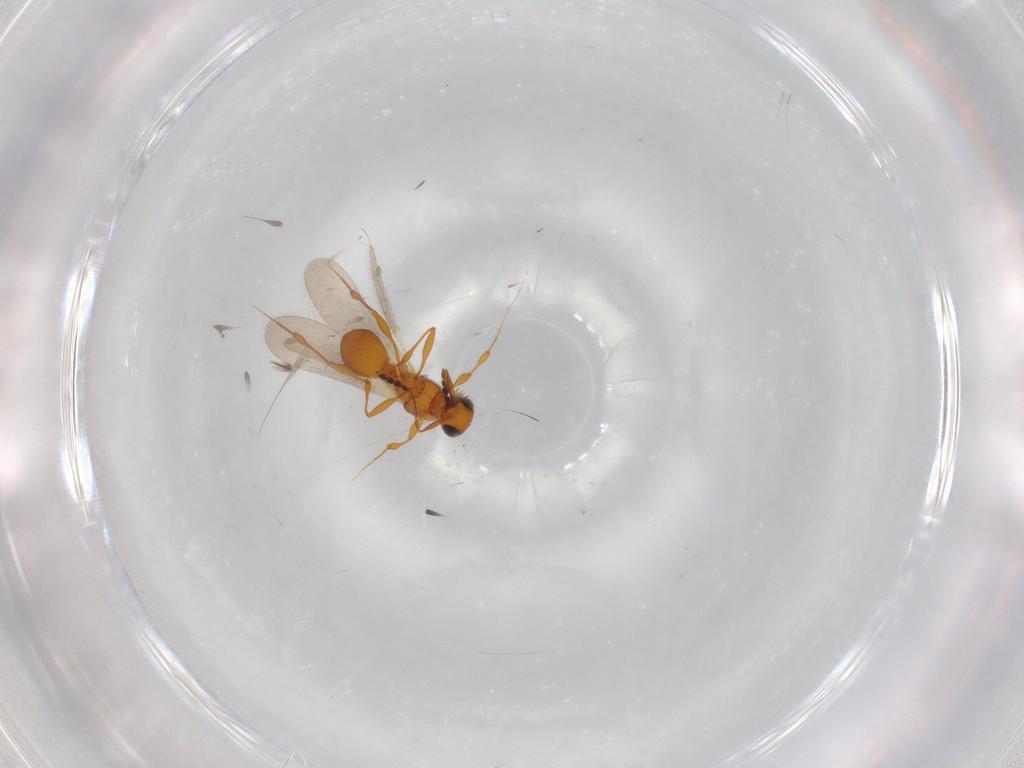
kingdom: Animalia
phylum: Arthropoda
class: Insecta
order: Hymenoptera
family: Platygastridae
